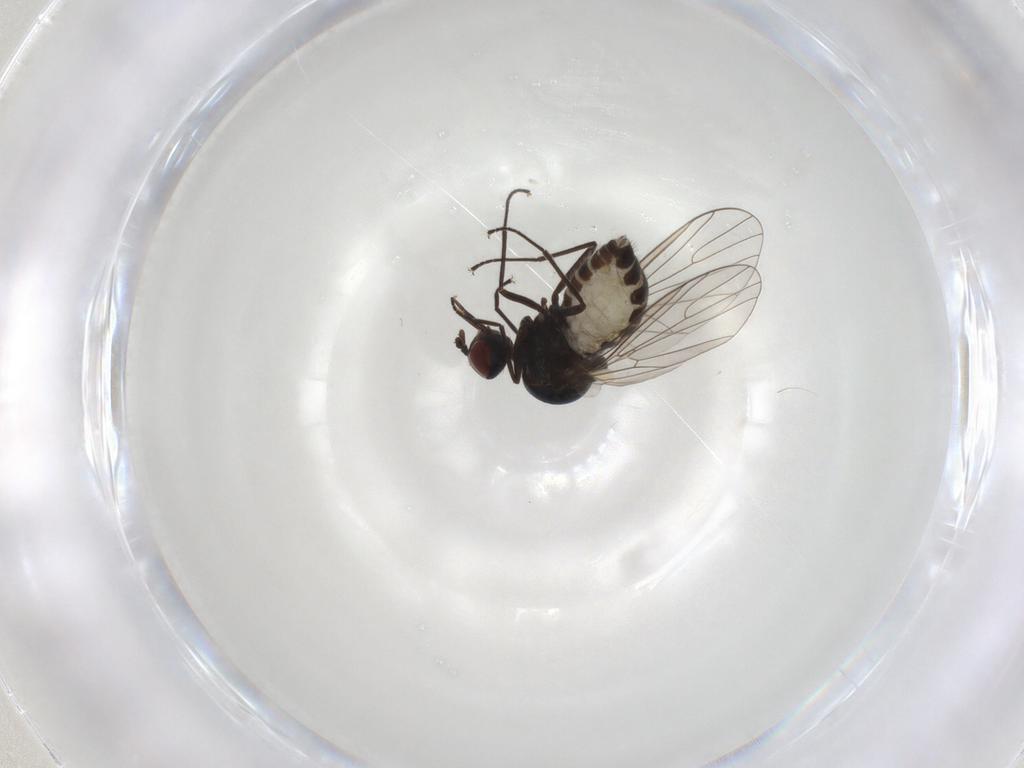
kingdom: Animalia
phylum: Arthropoda
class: Insecta
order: Diptera
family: Bombyliidae
